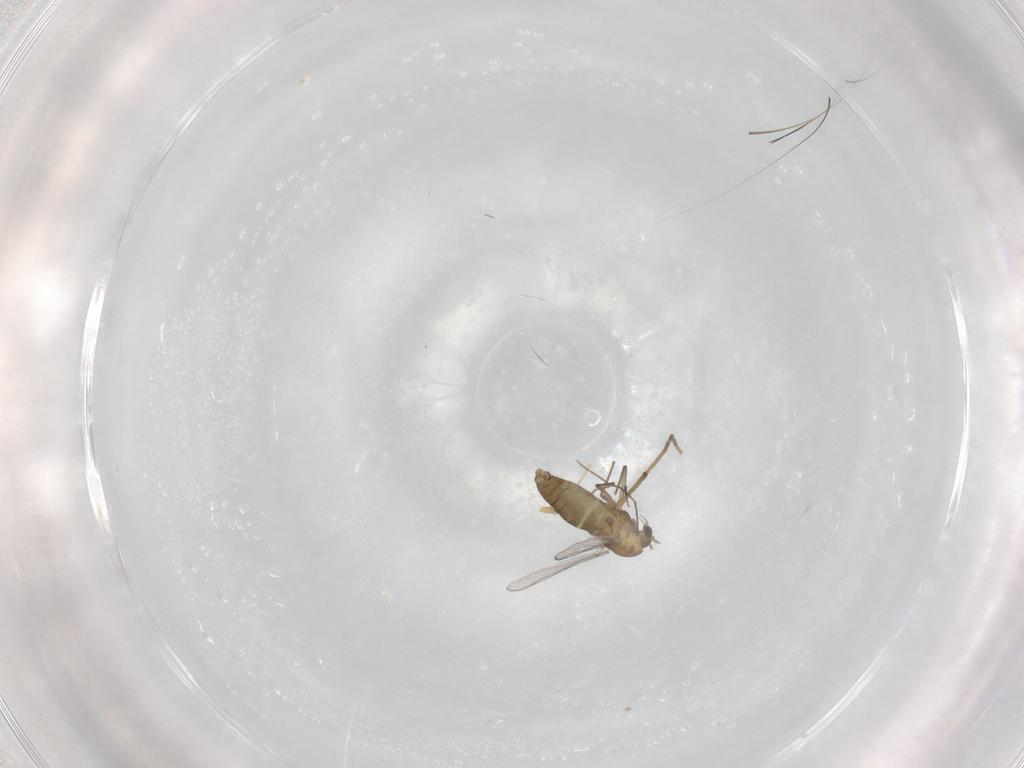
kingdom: Animalia
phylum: Arthropoda
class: Insecta
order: Diptera
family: Chironomidae
